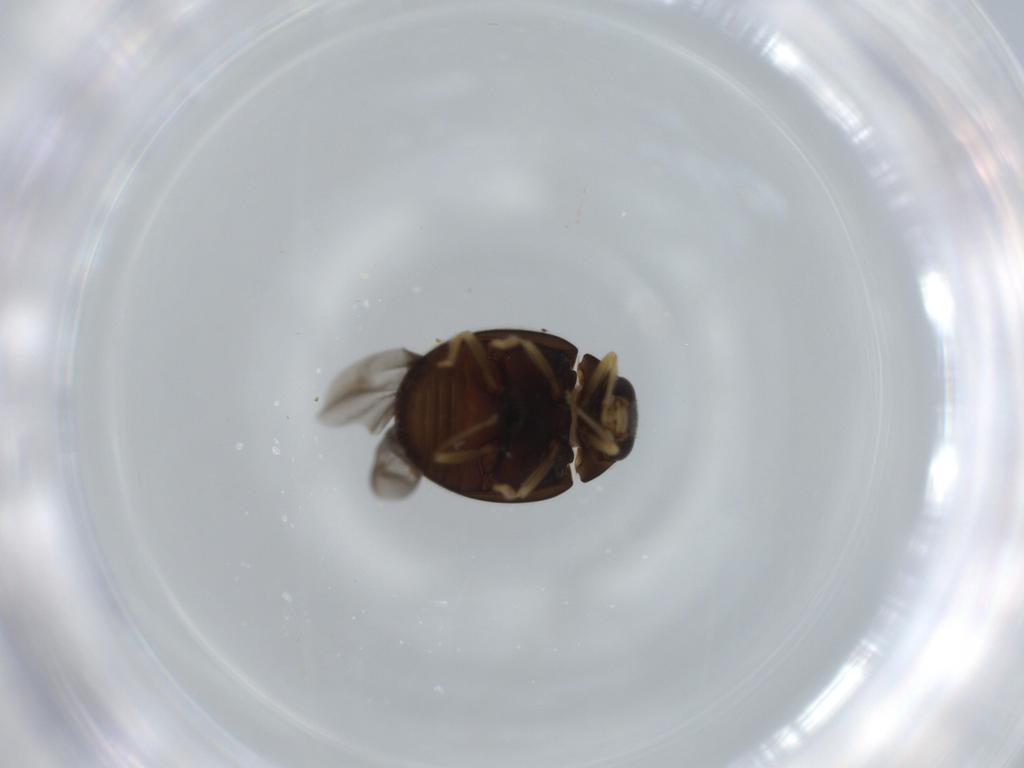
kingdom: Animalia
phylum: Arthropoda
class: Insecta
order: Coleoptera
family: Coccinellidae
